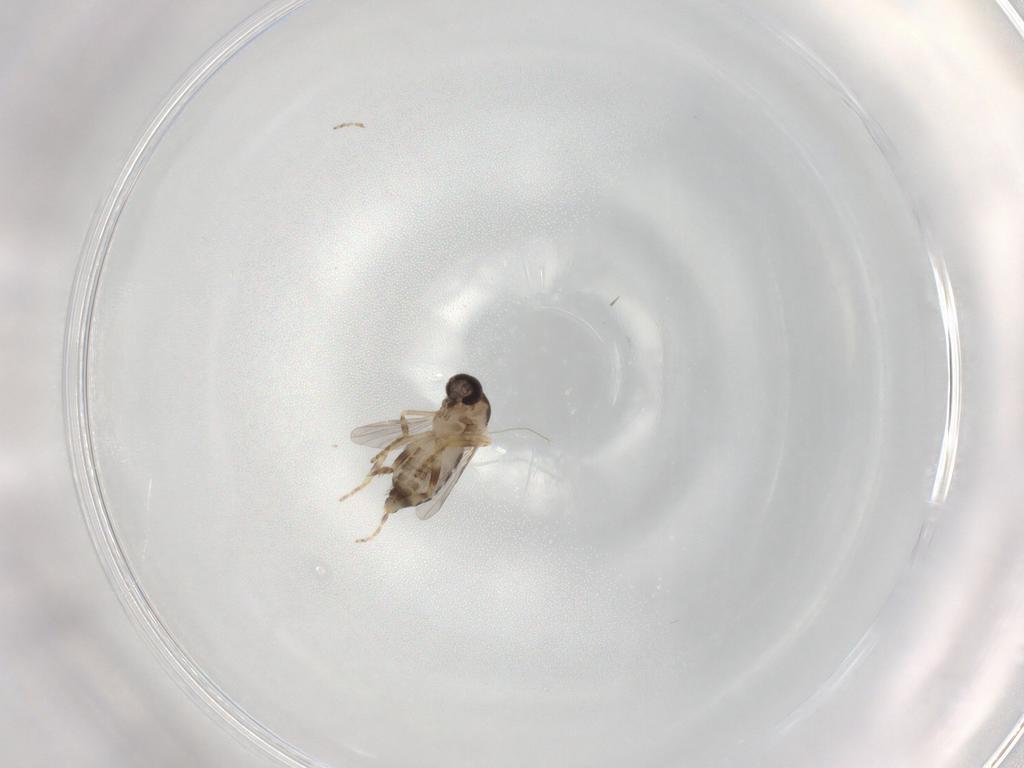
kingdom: Animalia
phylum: Arthropoda
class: Insecta
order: Diptera
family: Ceratopogonidae
